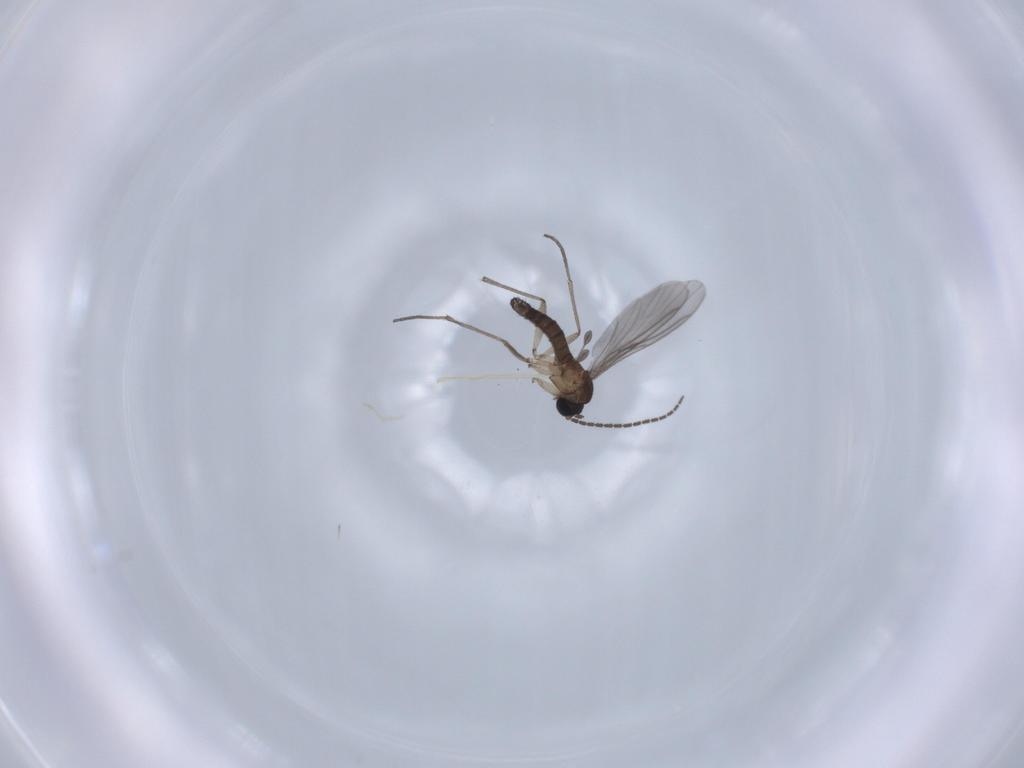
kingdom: Animalia
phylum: Arthropoda
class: Insecta
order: Diptera
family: Sciaridae
